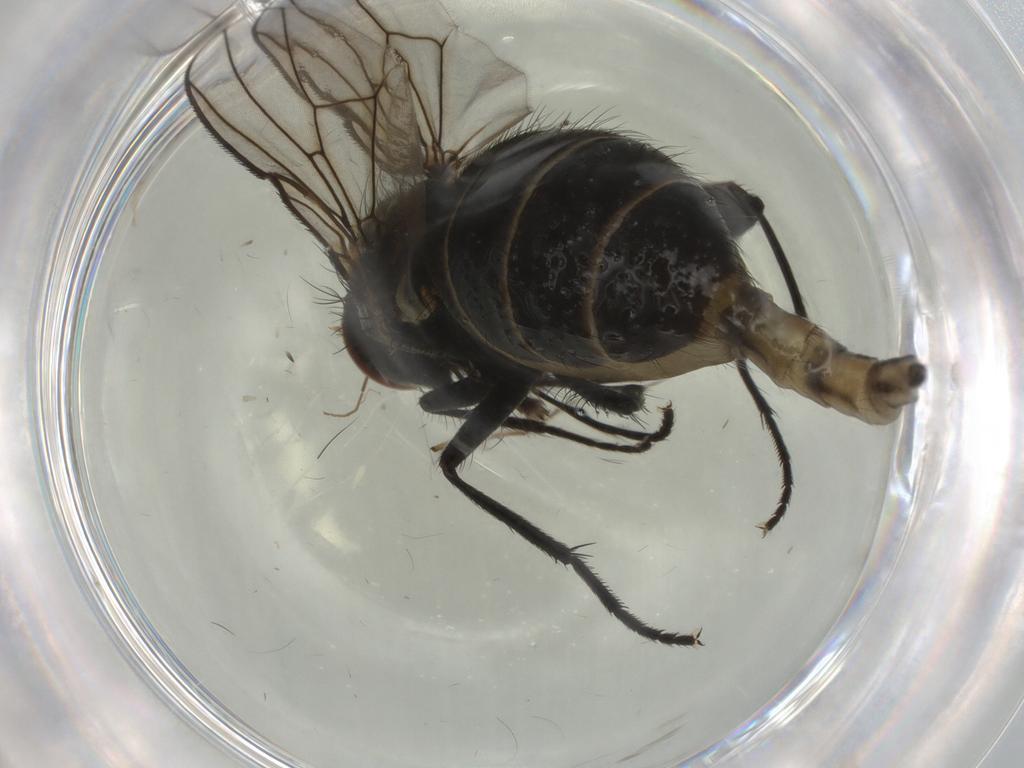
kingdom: Animalia
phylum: Arthropoda
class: Insecta
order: Diptera
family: Muscidae
